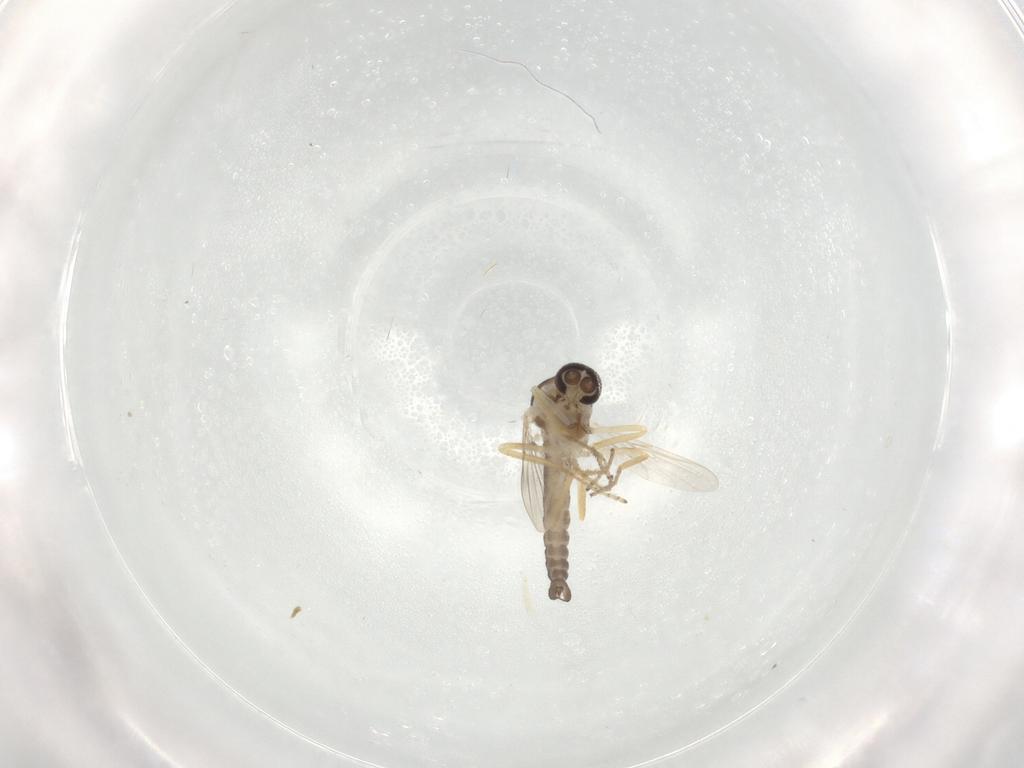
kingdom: Animalia
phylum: Arthropoda
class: Insecta
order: Diptera
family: Ceratopogonidae
